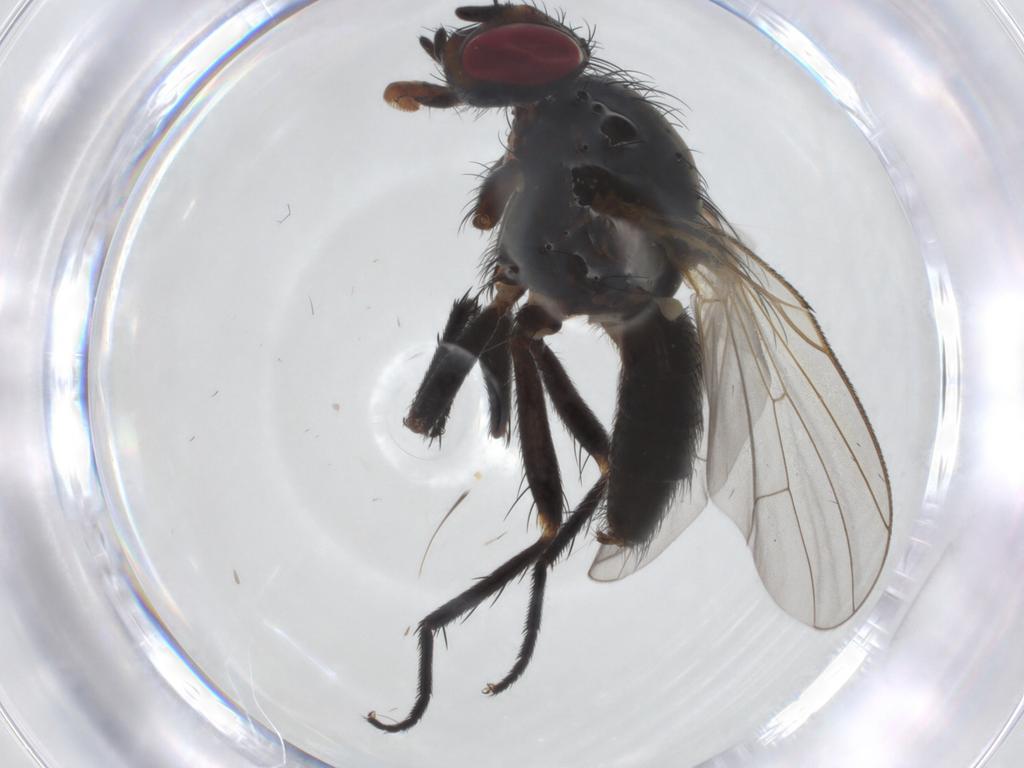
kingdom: Animalia
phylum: Arthropoda
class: Insecta
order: Diptera
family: Anthomyiidae
